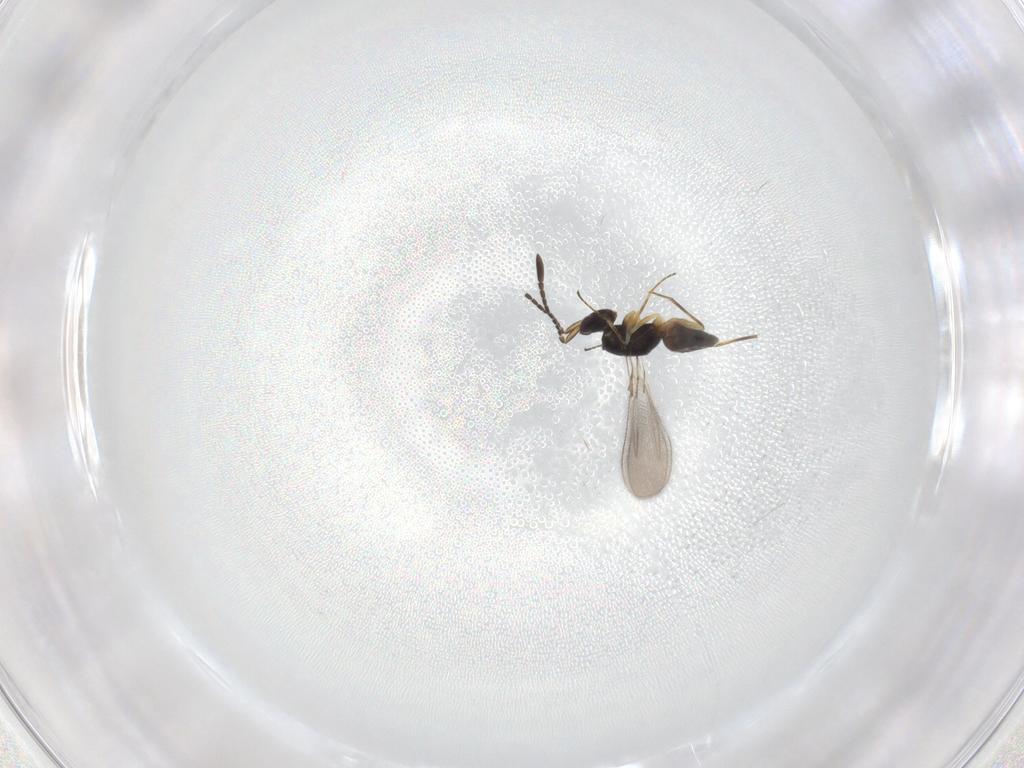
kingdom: Animalia
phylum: Arthropoda
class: Insecta
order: Hymenoptera
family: Mymaridae
